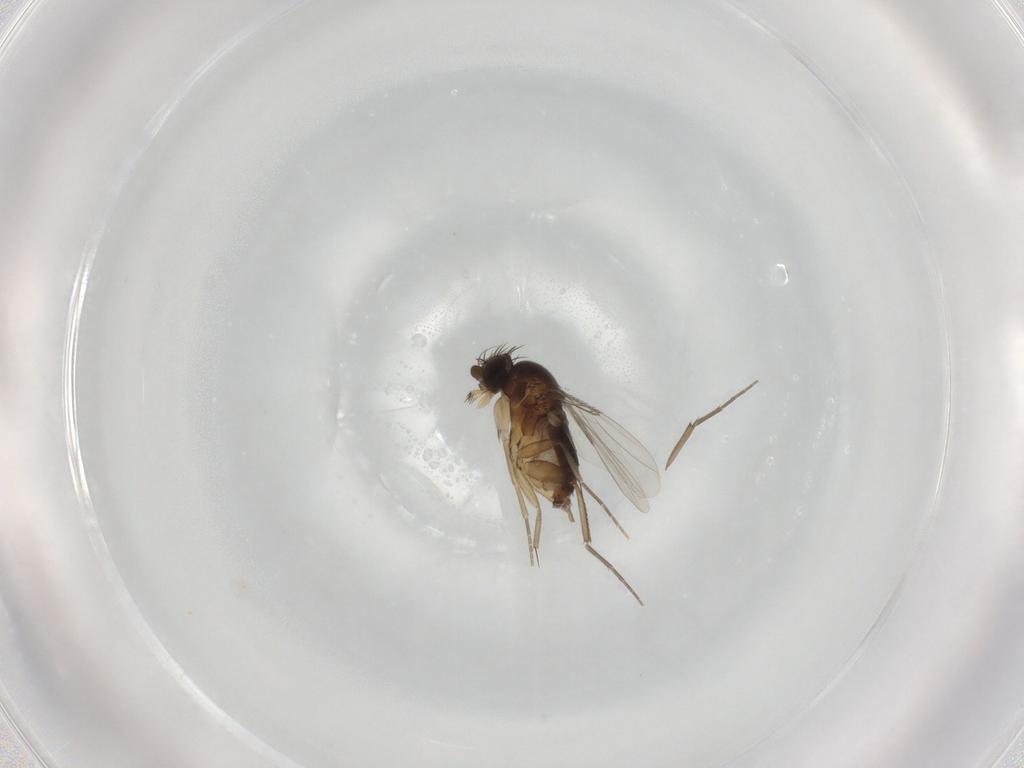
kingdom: Animalia
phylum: Arthropoda
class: Insecta
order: Diptera
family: Phoridae
